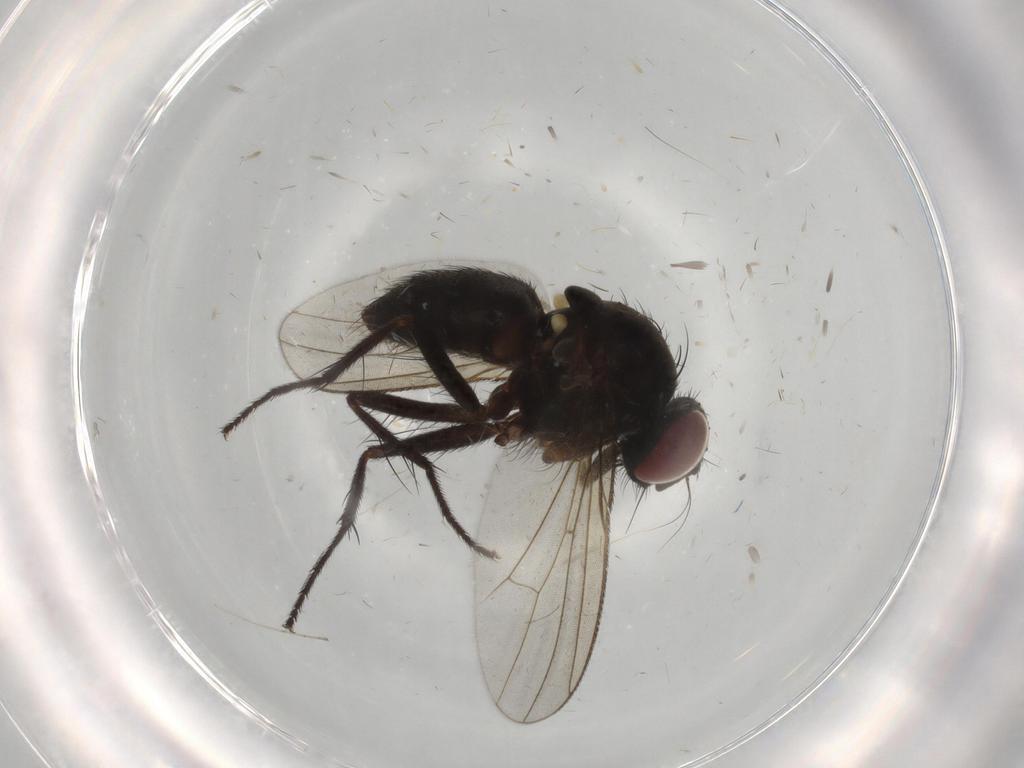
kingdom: Animalia
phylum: Arthropoda
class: Insecta
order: Diptera
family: Muscidae
